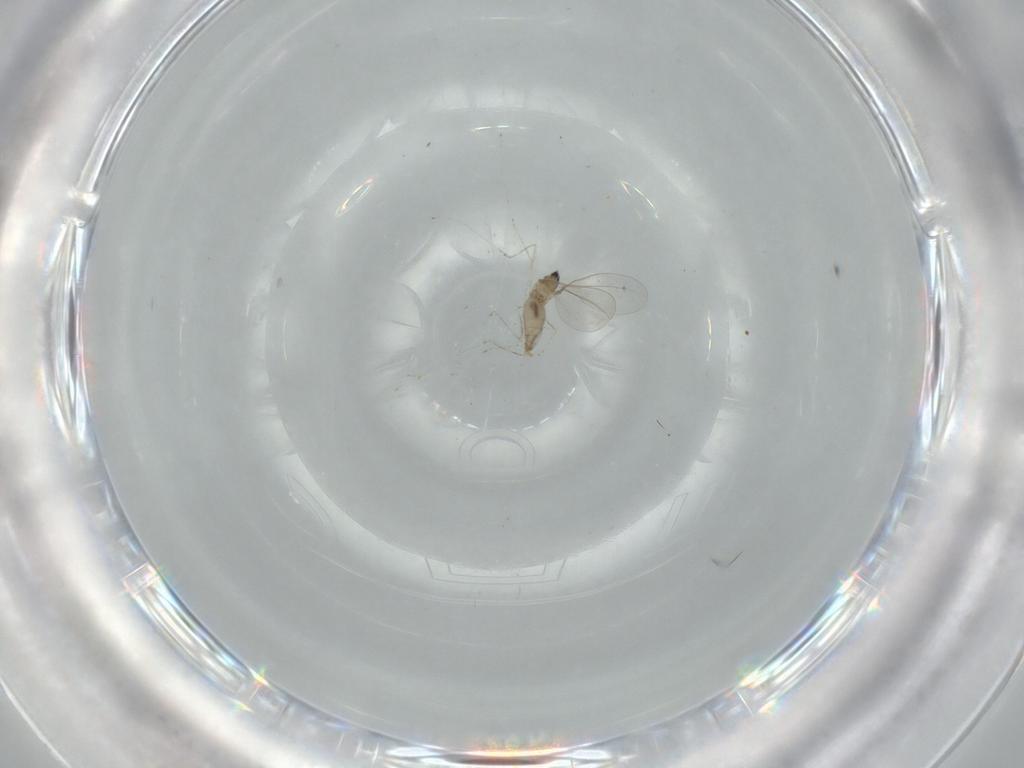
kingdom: Animalia
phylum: Arthropoda
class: Insecta
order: Diptera
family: Cecidomyiidae
